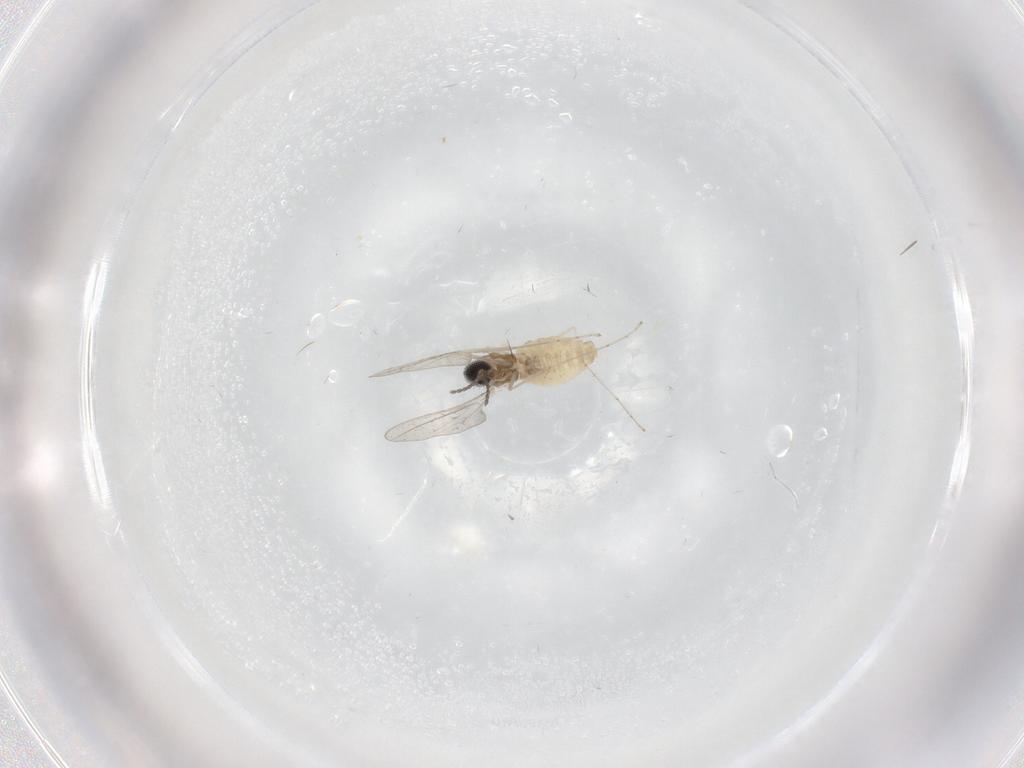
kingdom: Animalia
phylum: Arthropoda
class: Insecta
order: Diptera
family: Cecidomyiidae
